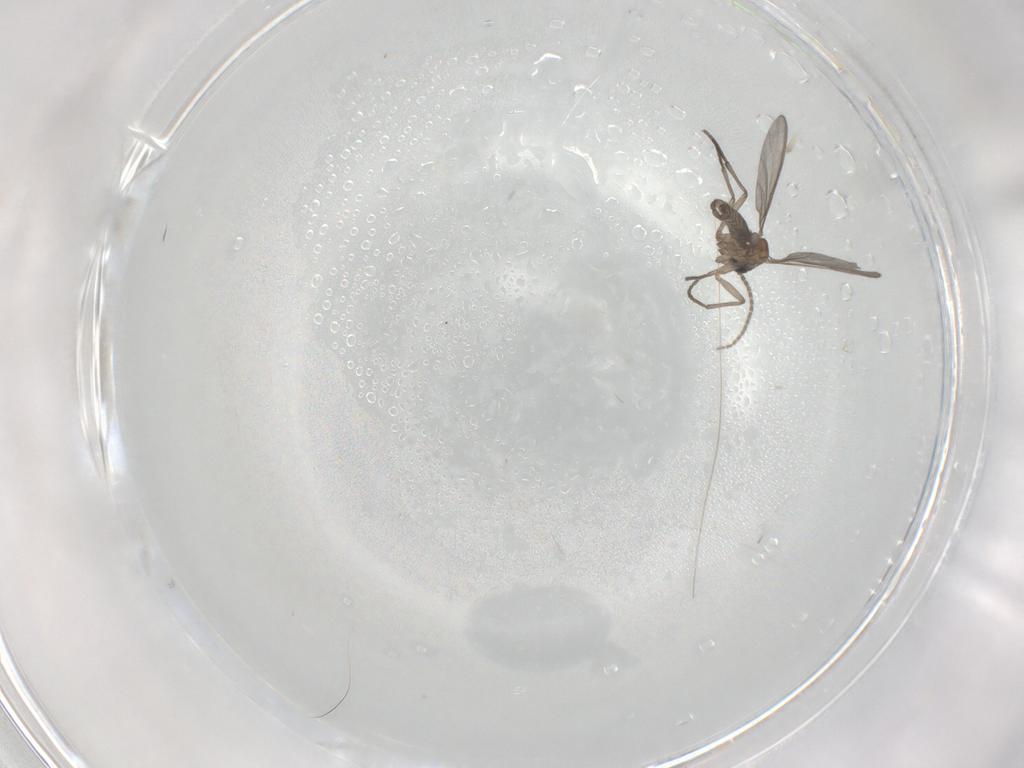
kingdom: Animalia
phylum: Arthropoda
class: Insecta
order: Diptera
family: Sciaridae
